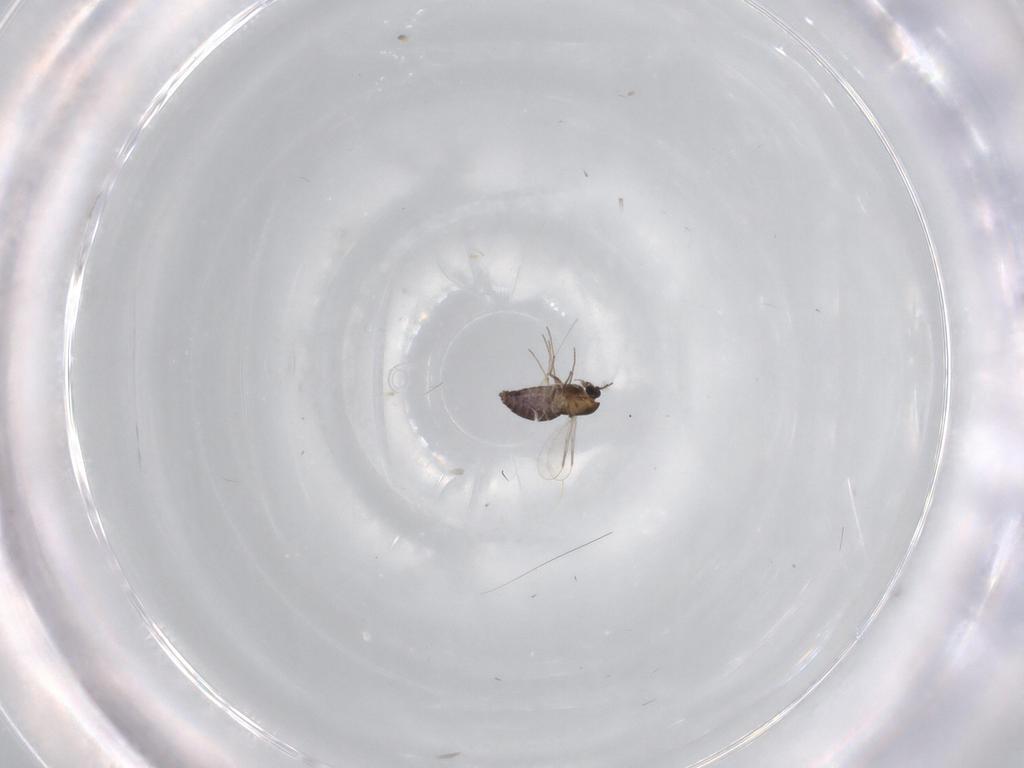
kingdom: Animalia
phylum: Arthropoda
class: Insecta
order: Diptera
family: Chironomidae
